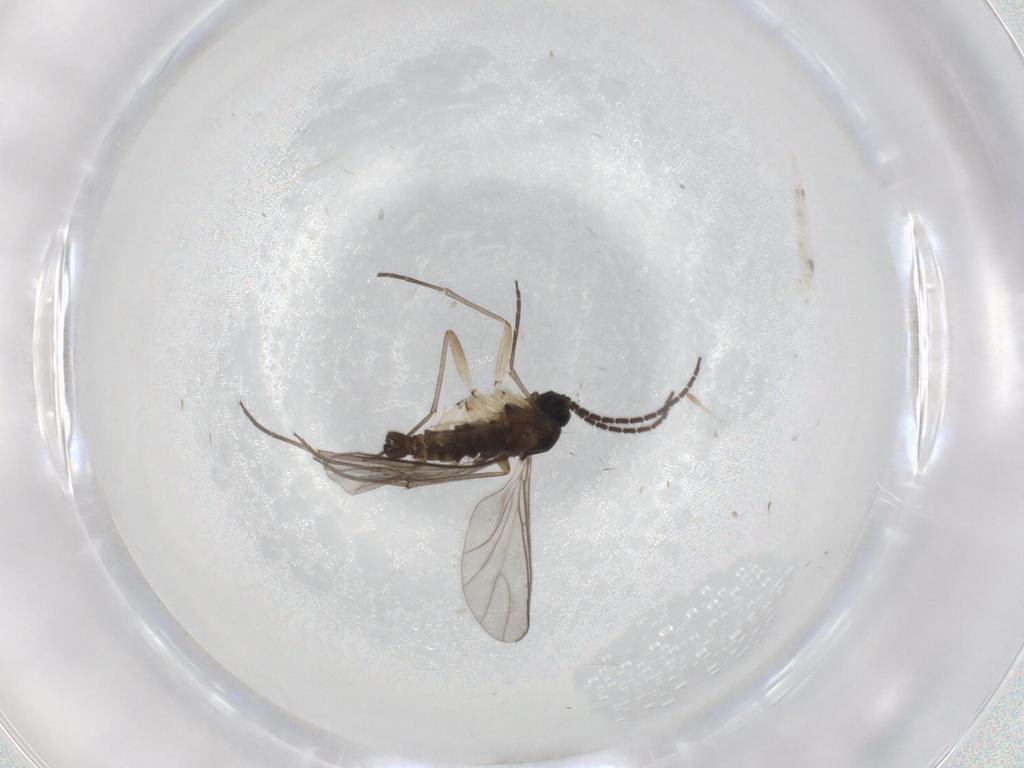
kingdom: Animalia
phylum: Arthropoda
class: Insecta
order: Diptera
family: Sciaridae
